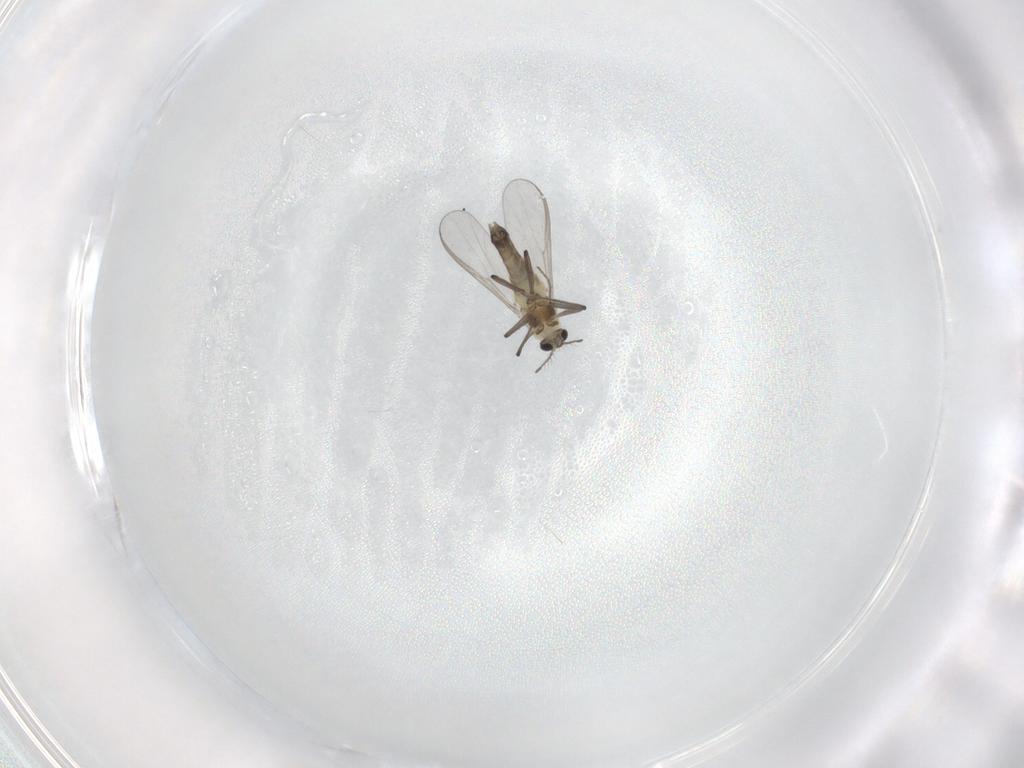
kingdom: Animalia
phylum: Arthropoda
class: Insecta
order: Diptera
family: Chironomidae
